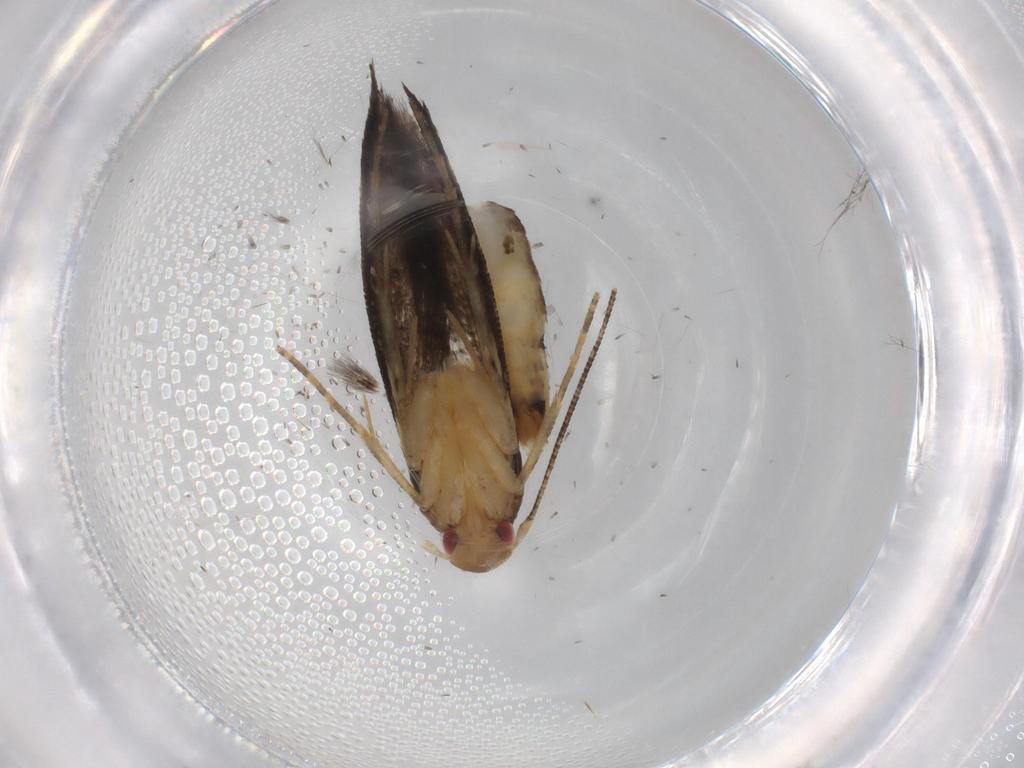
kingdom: Animalia
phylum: Arthropoda
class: Insecta
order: Lepidoptera
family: Momphidae
